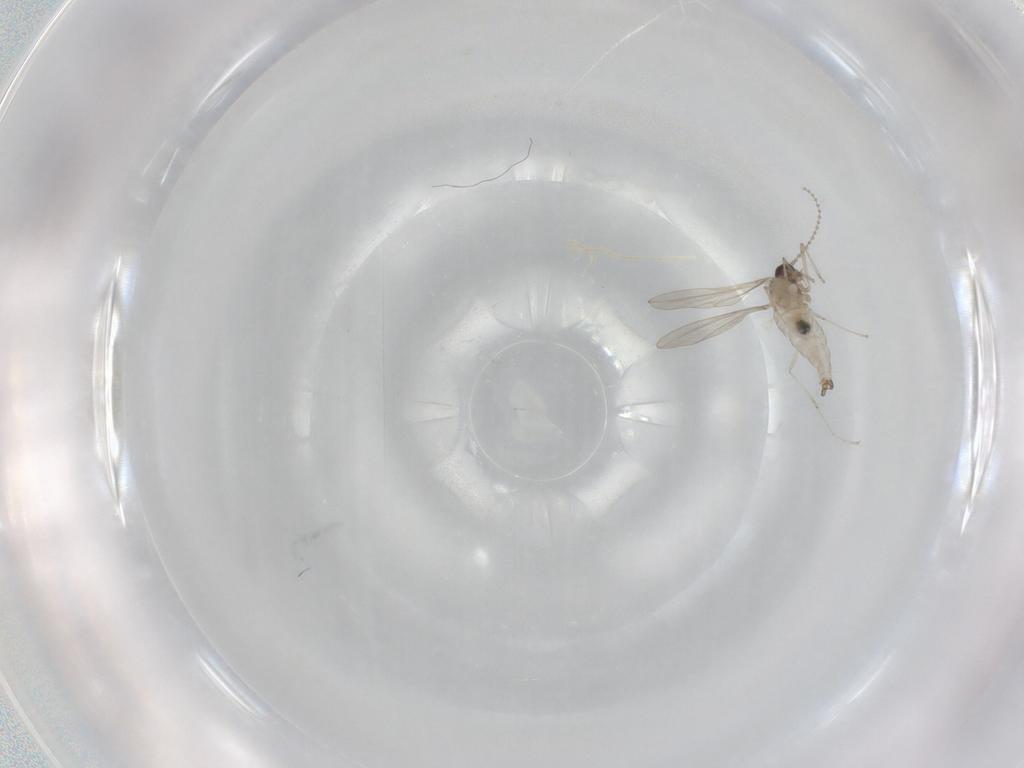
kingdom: Animalia
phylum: Arthropoda
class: Insecta
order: Diptera
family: Cecidomyiidae
